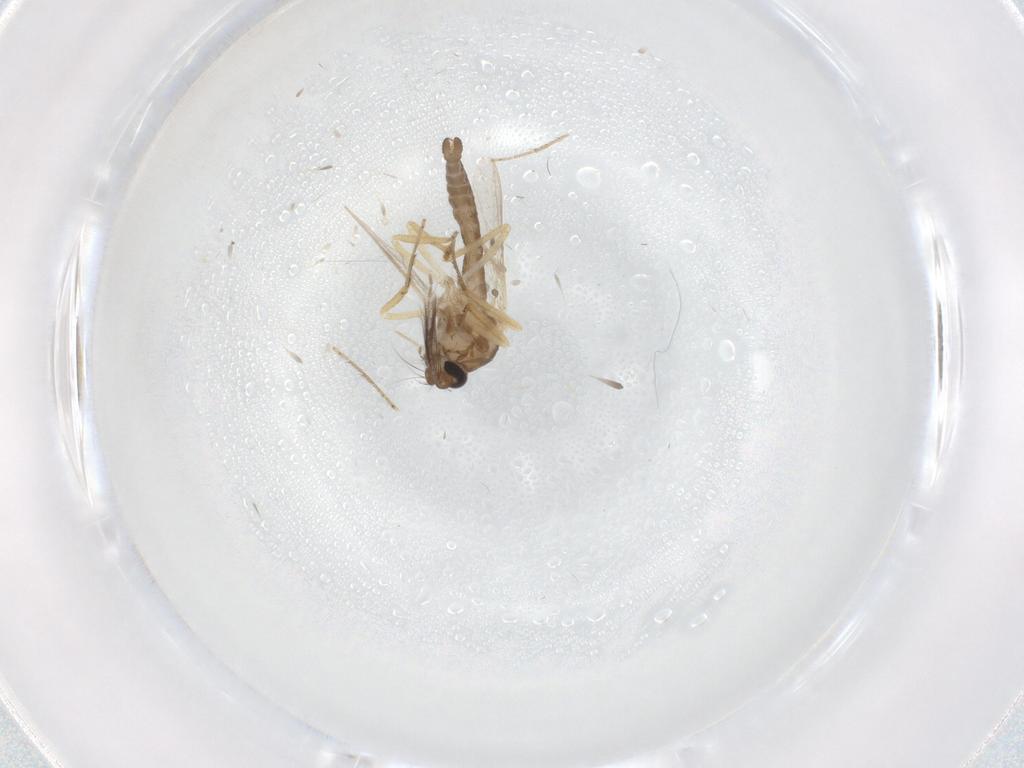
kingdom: Animalia
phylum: Arthropoda
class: Insecta
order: Diptera
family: Ceratopogonidae
